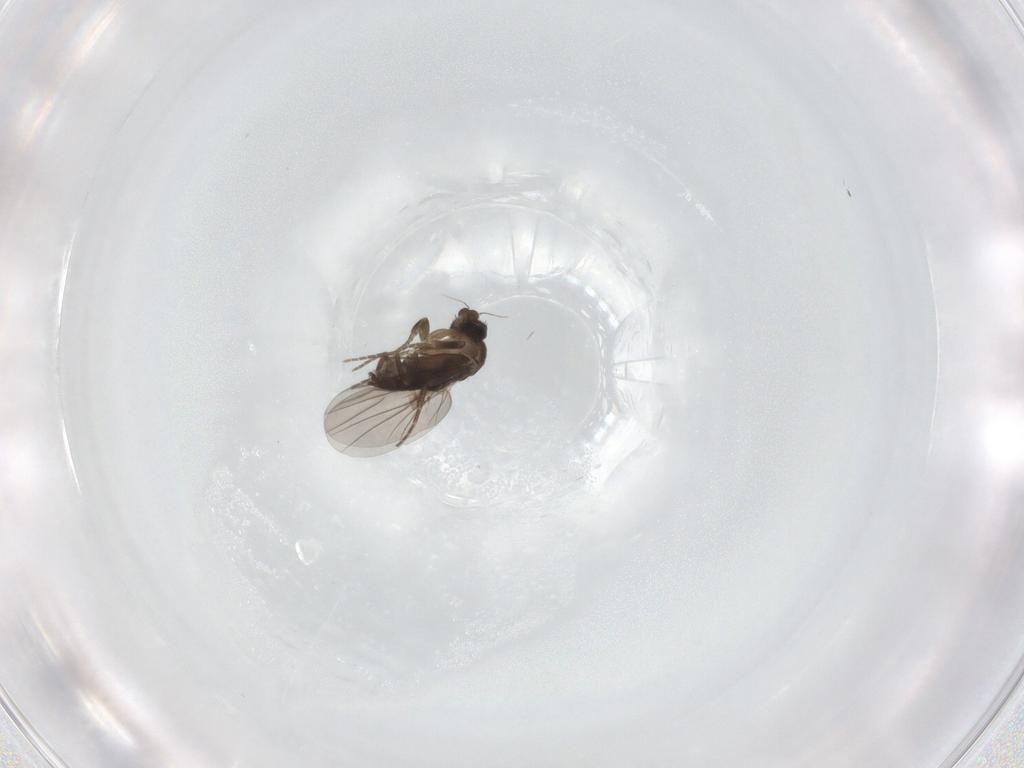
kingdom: Animalia
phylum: Arthropoda
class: Insecta
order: Diptera
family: Chironomidae
